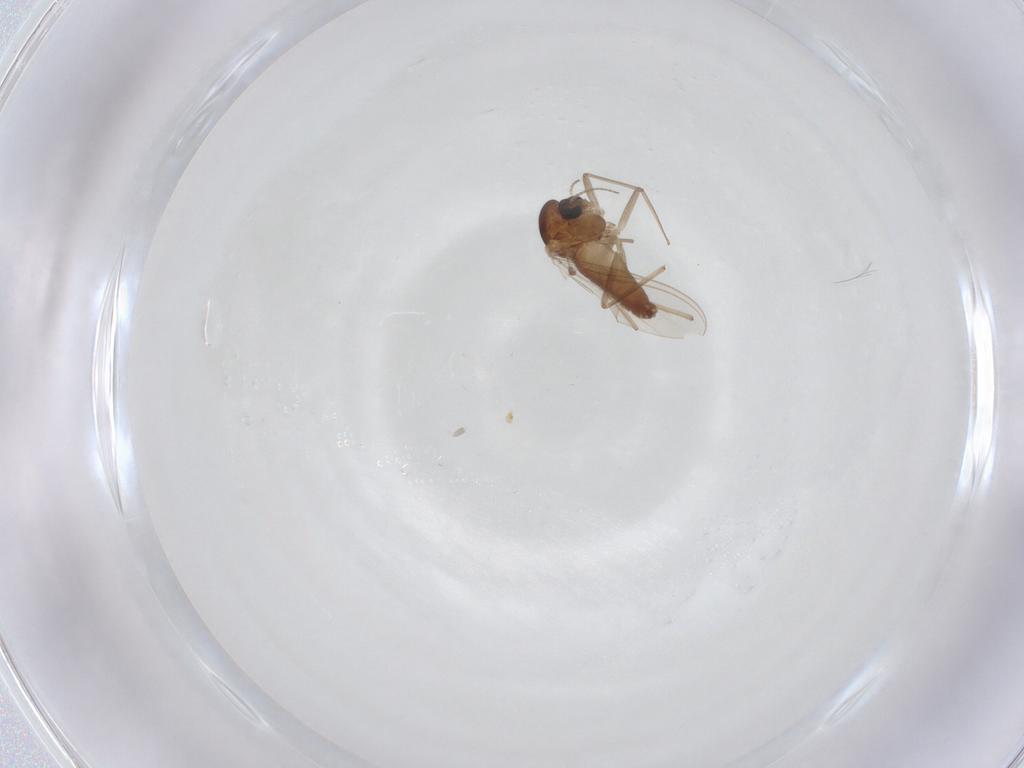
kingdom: Animalia
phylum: Arthropoda
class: Insecta
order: Diptera
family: Chironomidae
